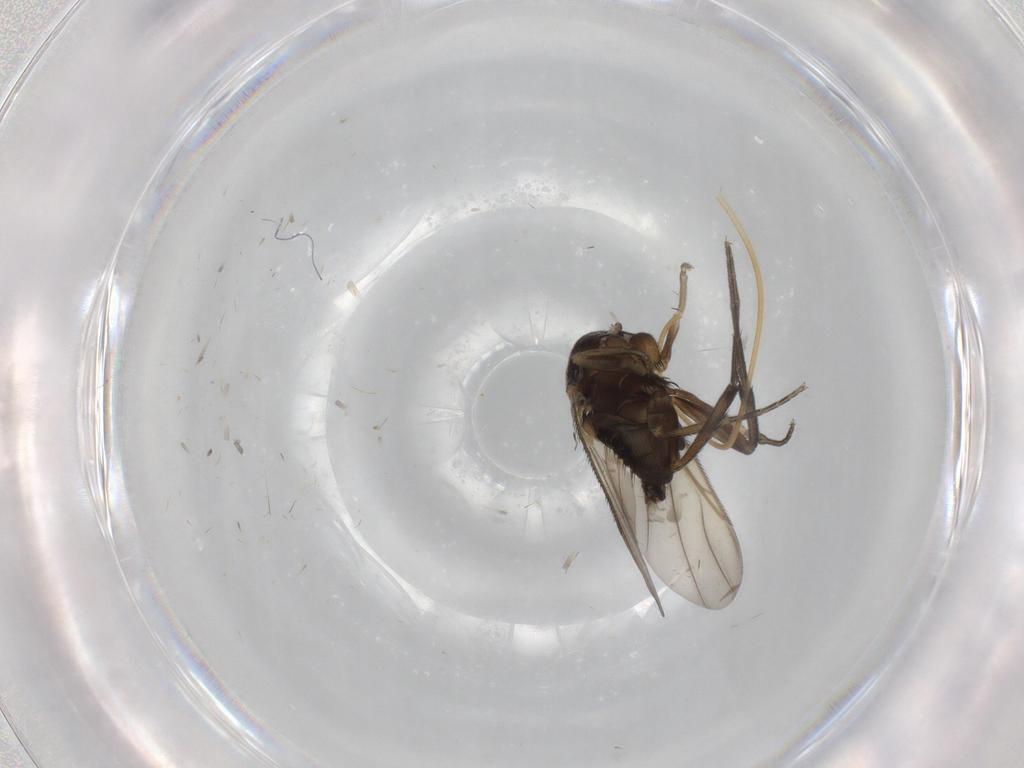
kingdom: Animalia
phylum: Arthropoda
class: Insecta
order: Diptera
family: Phoridae
